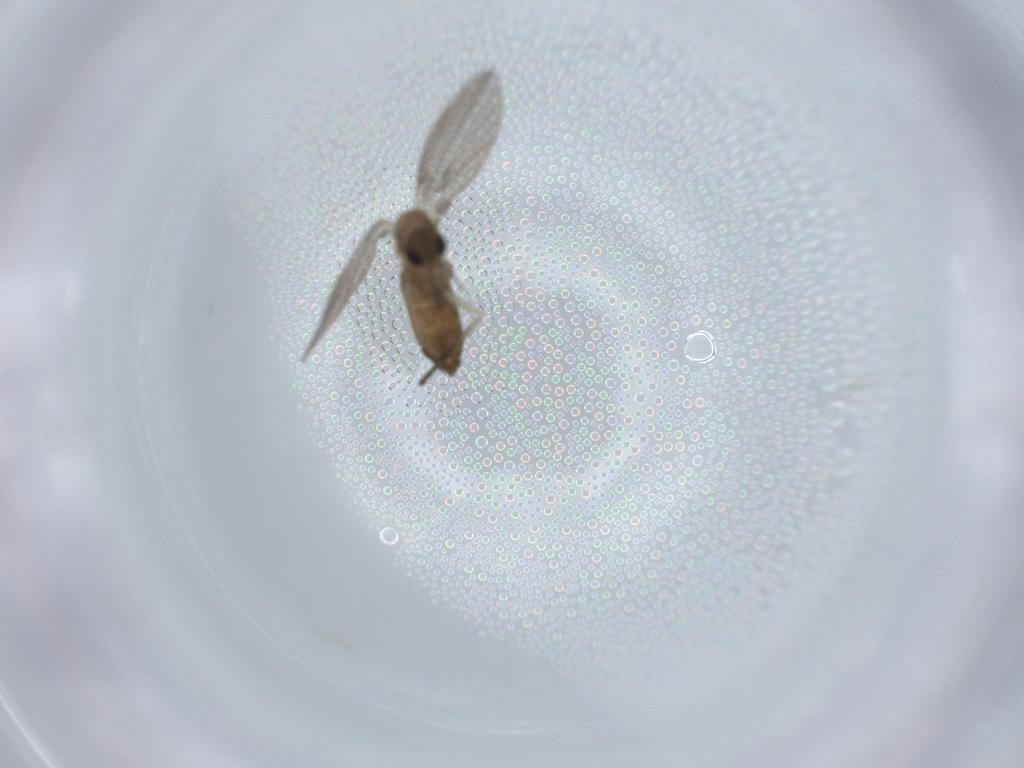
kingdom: Animalia
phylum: Arthropoda
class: Insecta
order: Diptera
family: Psychodidae
